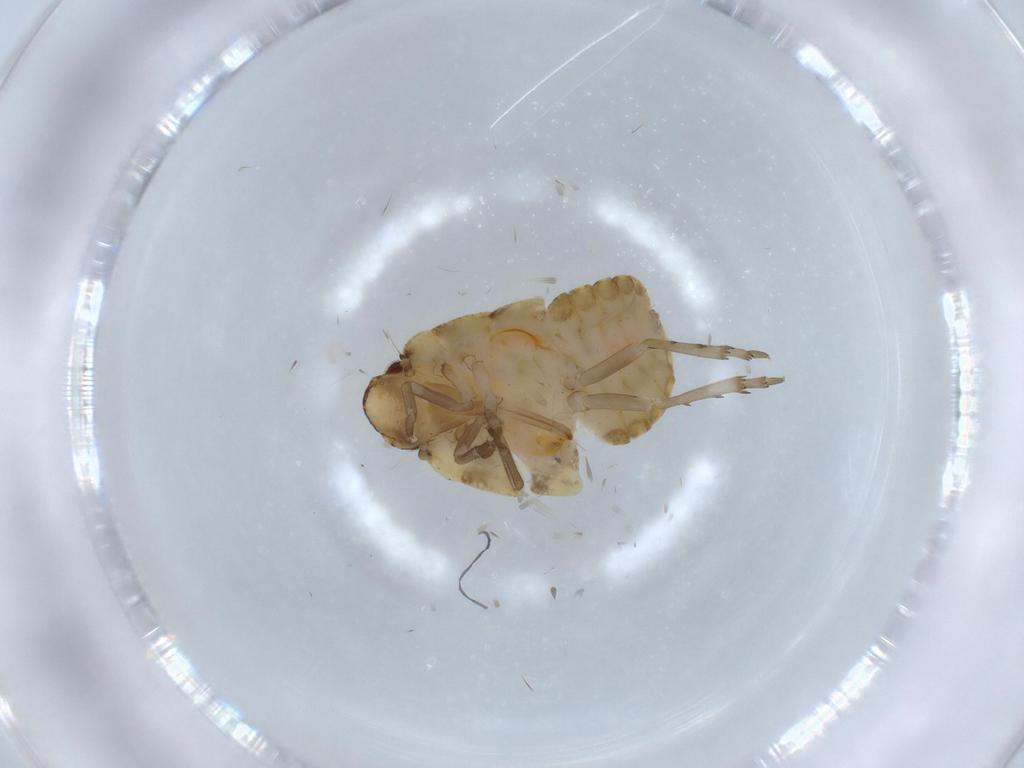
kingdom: Animalia
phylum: Arthropoda
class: Insecta
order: Hemiptera
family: Flatidae
